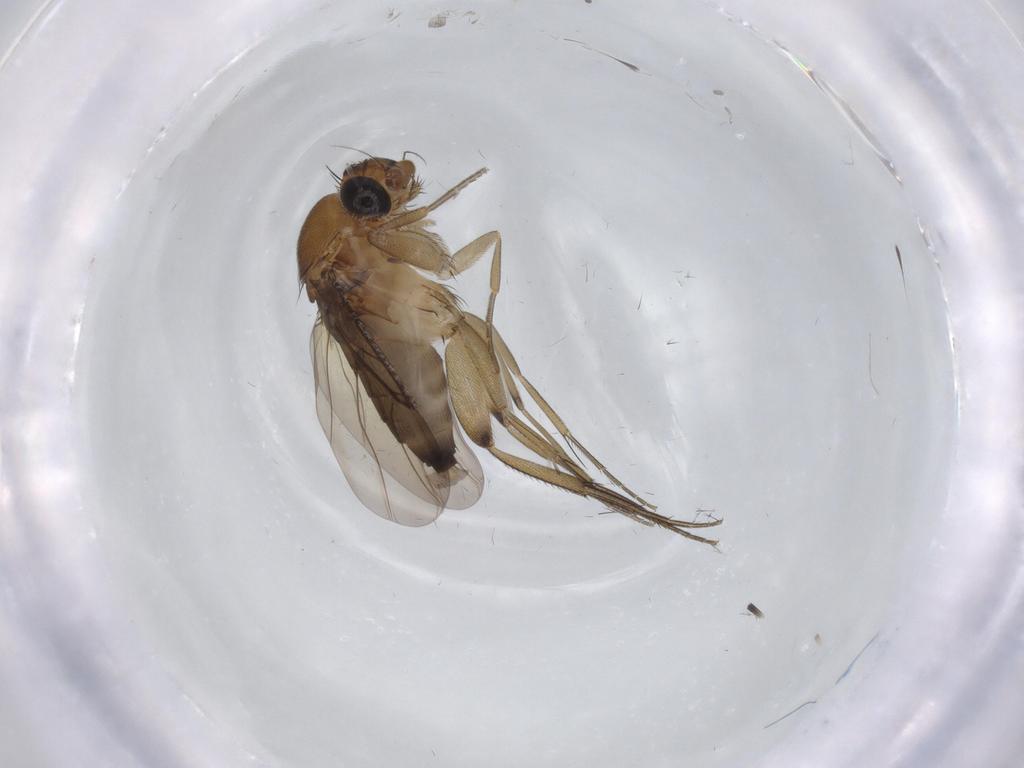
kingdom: Animalia
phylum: Arthropoda
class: Insecta
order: Diptera
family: Phoridae
